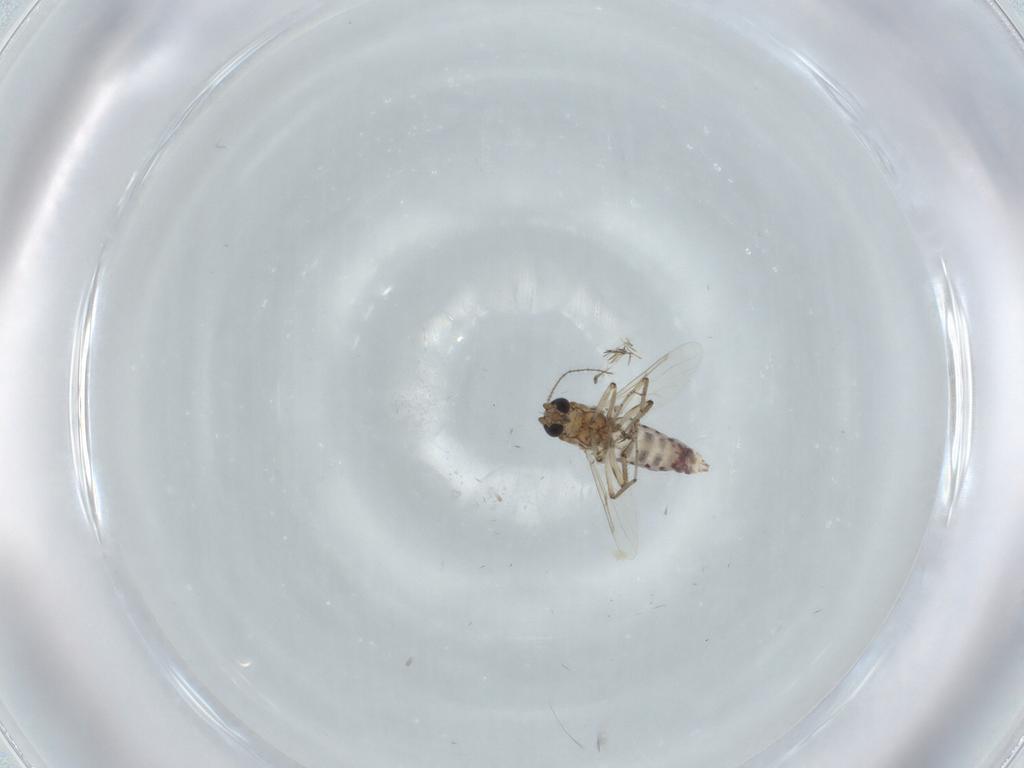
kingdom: Animalia
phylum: Arthropoda
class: Insecta
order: Diptera
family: Ceratopogonidae
